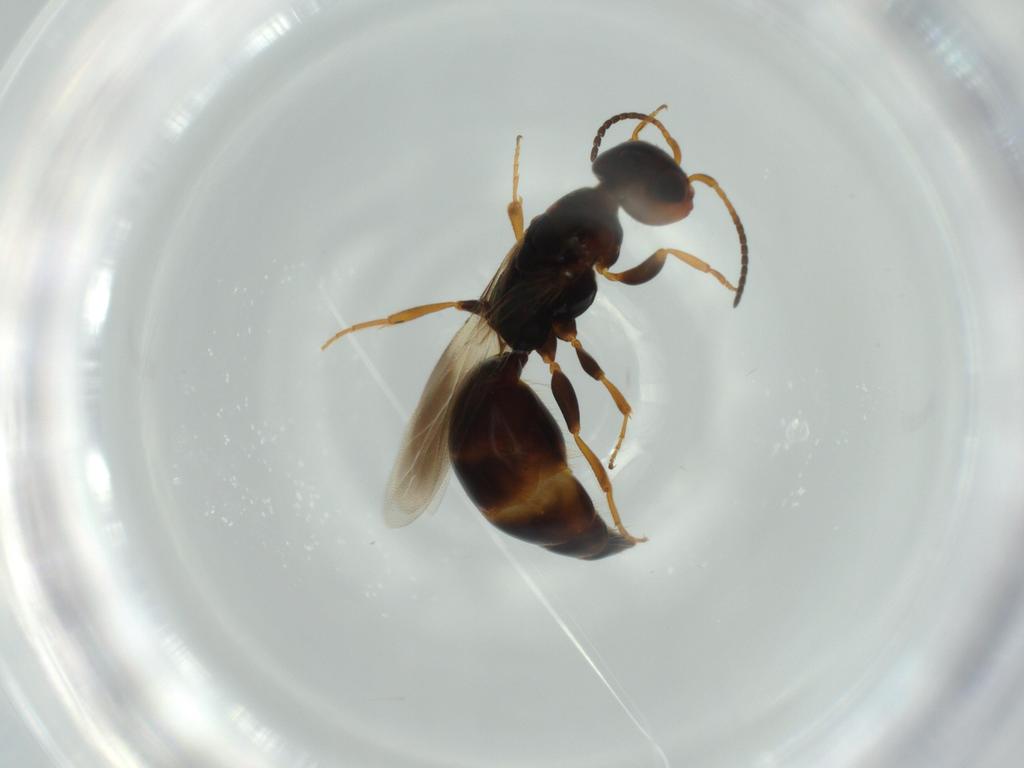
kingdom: Animalia
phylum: Arthropoda
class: Insecta
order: Hymenoptera
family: Bethylidae
